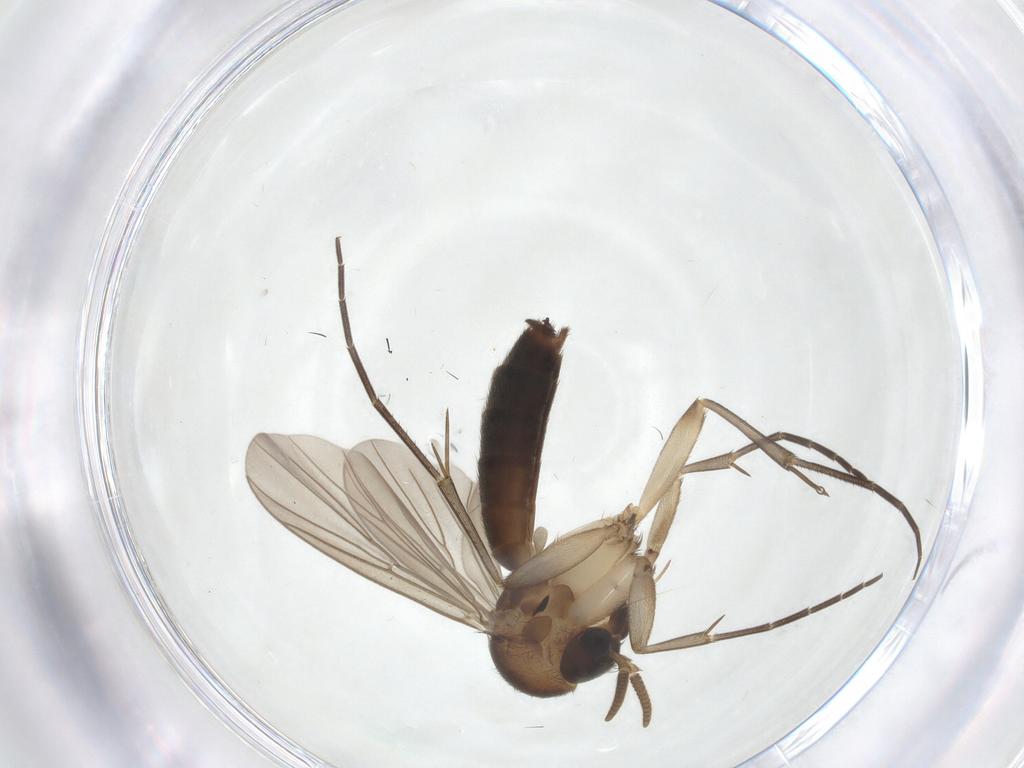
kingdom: Animalia
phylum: Arthropoda
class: Insecta
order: Diptera
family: Mycetophilidae
